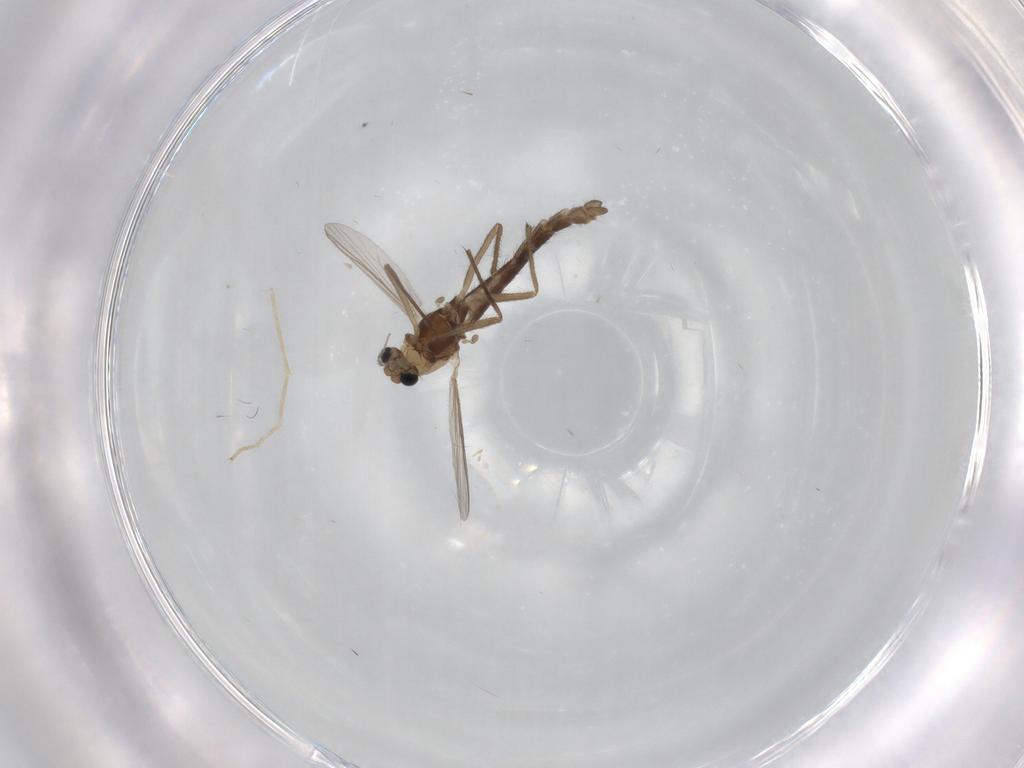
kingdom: Animalia
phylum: Arthropoda
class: Insecta
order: Diptera
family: Chironomidae
